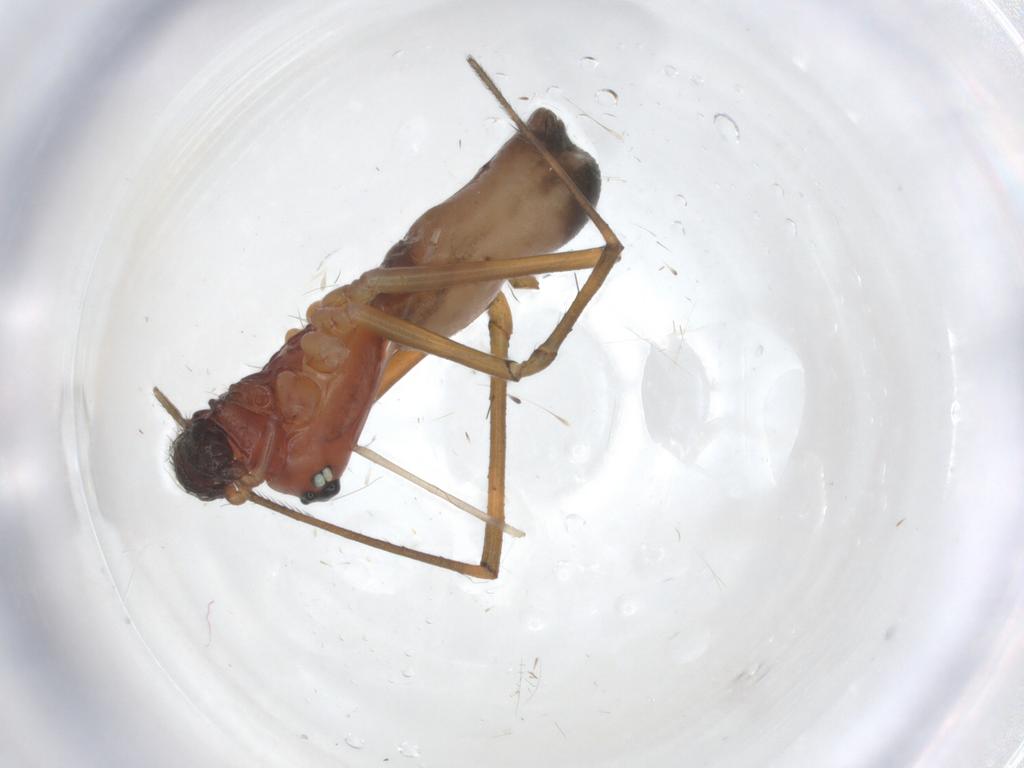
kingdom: Animalia
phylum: Arthropoda
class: Arachnida
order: Araneae
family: Linyphiidae
